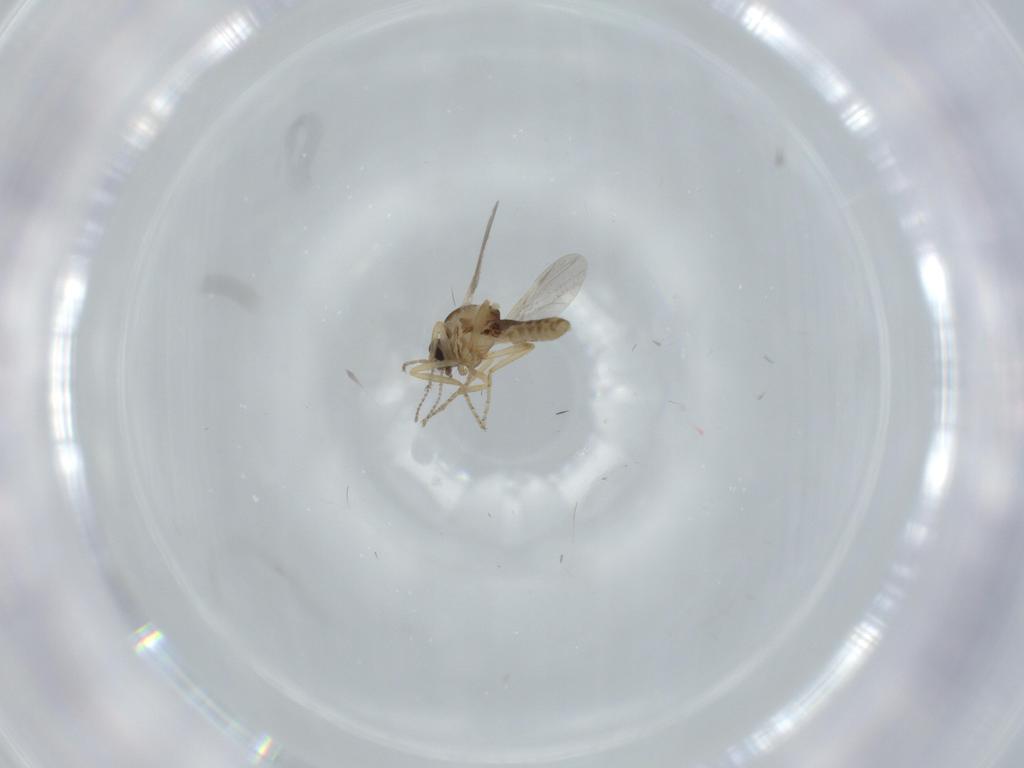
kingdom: Animalia
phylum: Arthropoda
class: Insecta
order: Diptera
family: Ceratopogonidae
